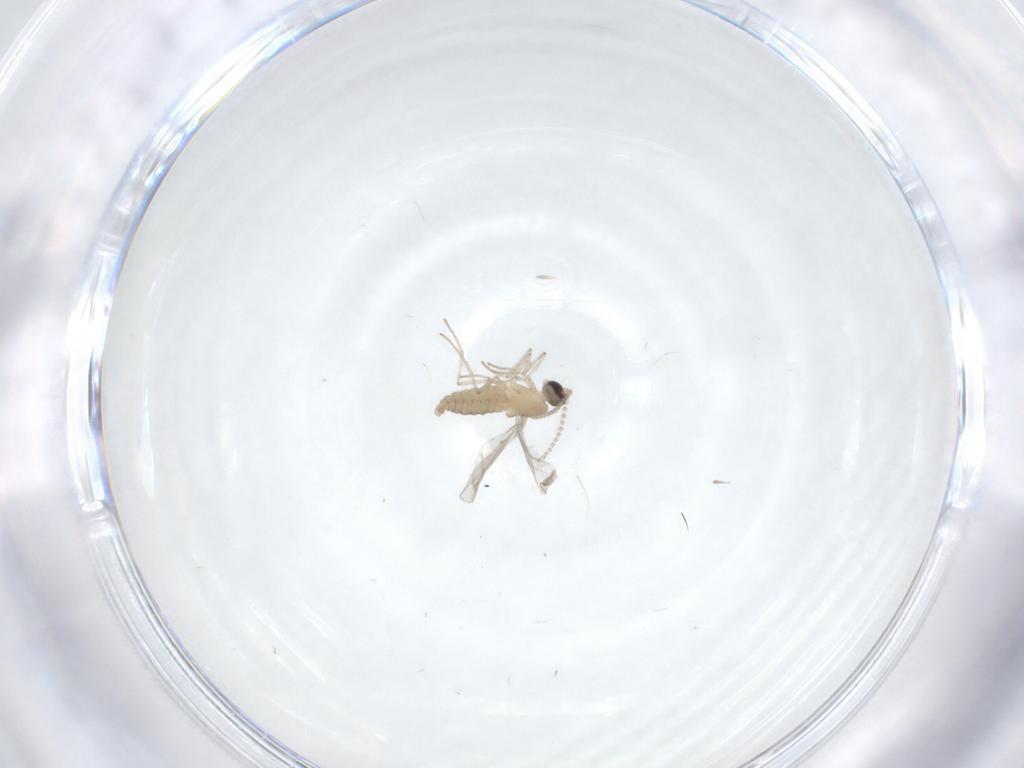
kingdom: Animalia
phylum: Arthropoda
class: Insecta
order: Diptera
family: Cecidomyiidae
